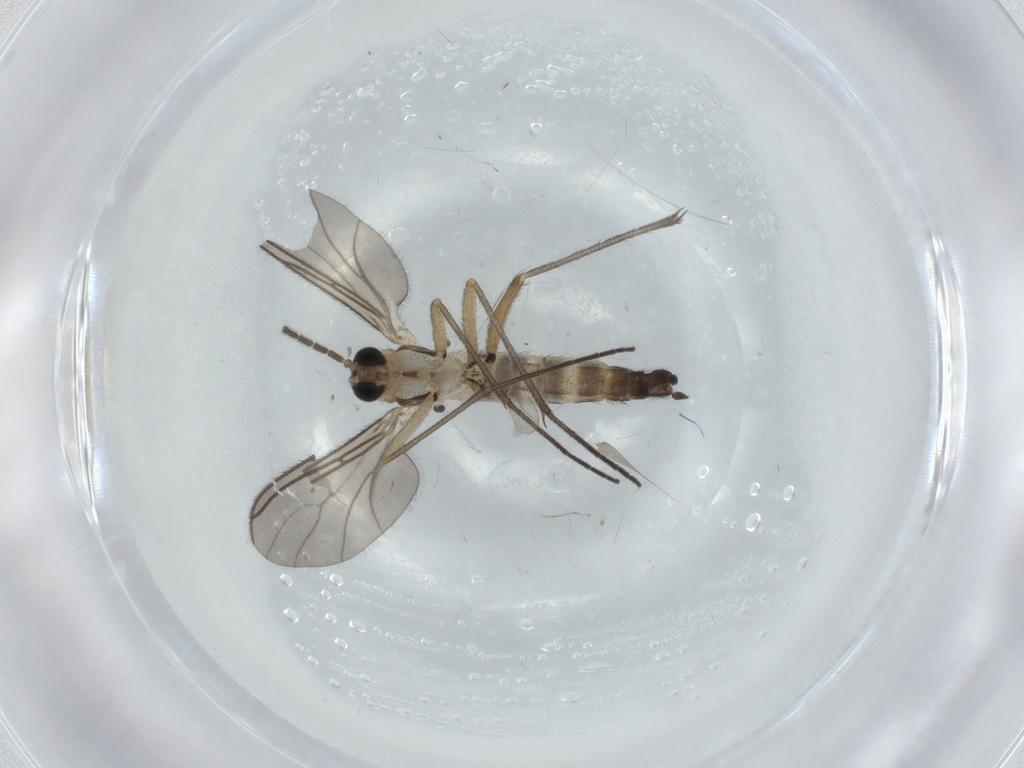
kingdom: Animalia
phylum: Arthropoda
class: Insecta
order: Diptera
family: Sciaridae
